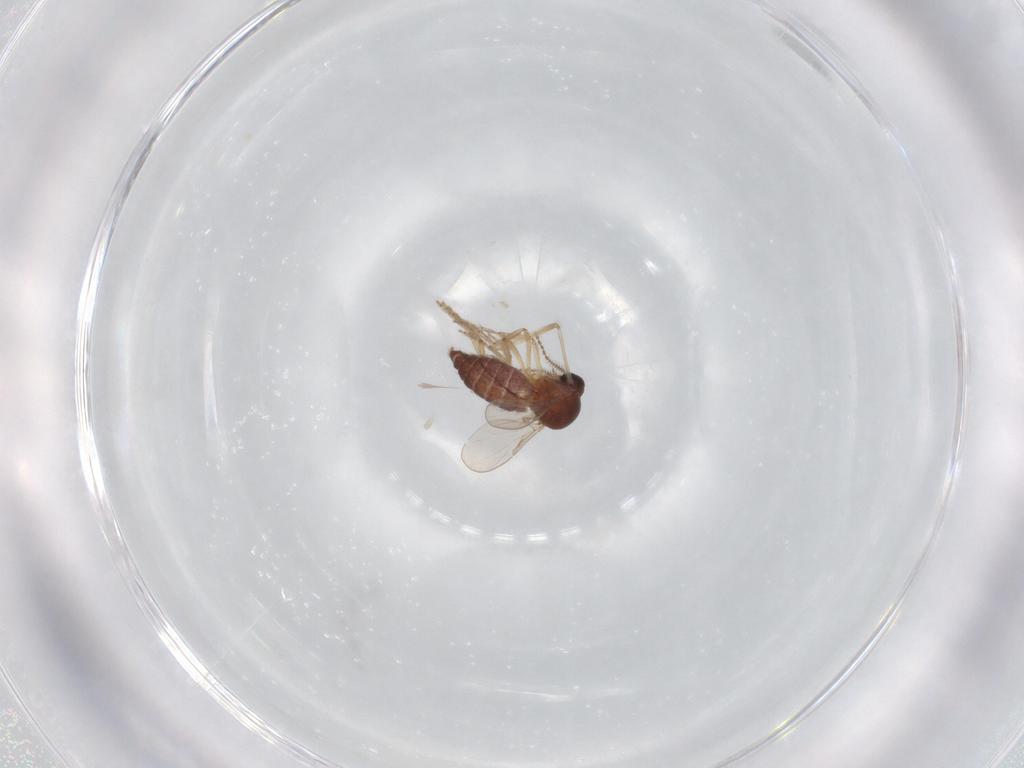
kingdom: Animalia
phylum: Arthropoda
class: Insecta
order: Diptera
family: Ceratopogonidae
